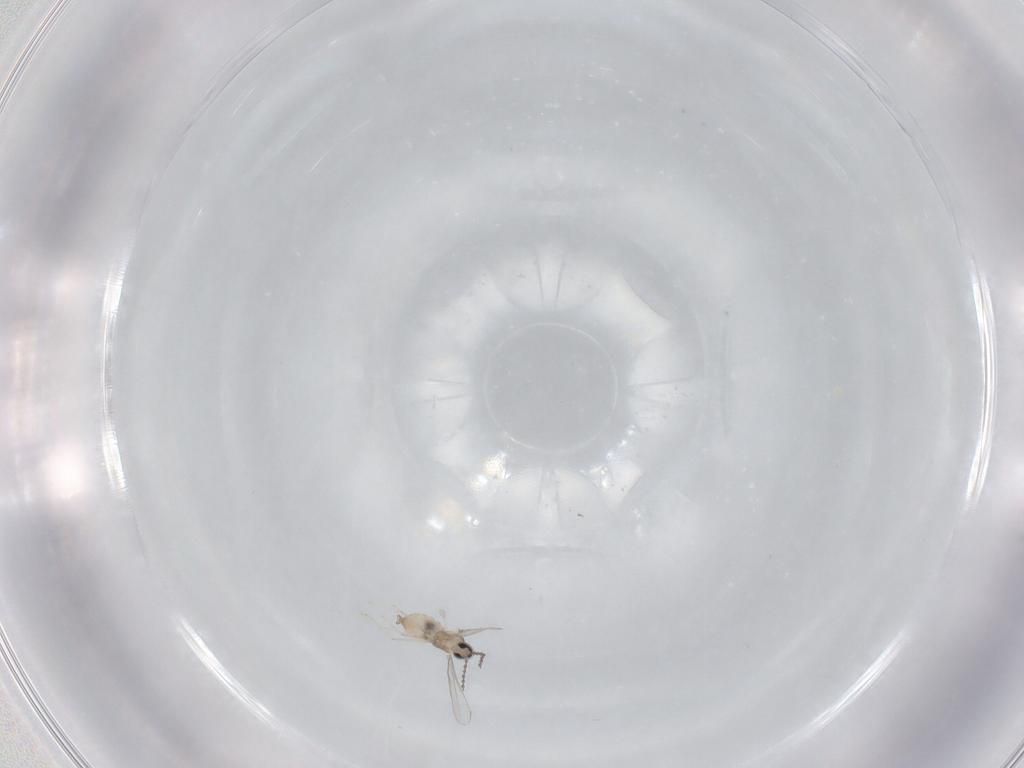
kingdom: Animalia
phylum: Arthropoda
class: Insecta
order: Diptera
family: Cecidomyiidae
